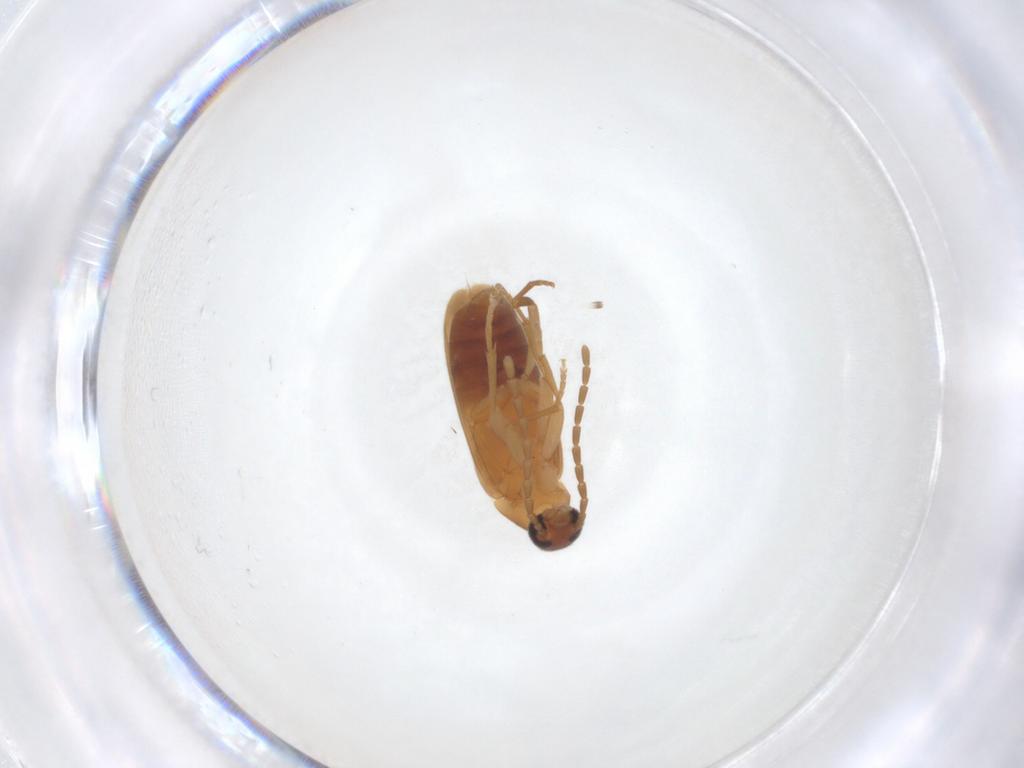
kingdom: Animalia
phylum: Arthropoda
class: Insecta
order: Coleoptera
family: Scraptiidae
